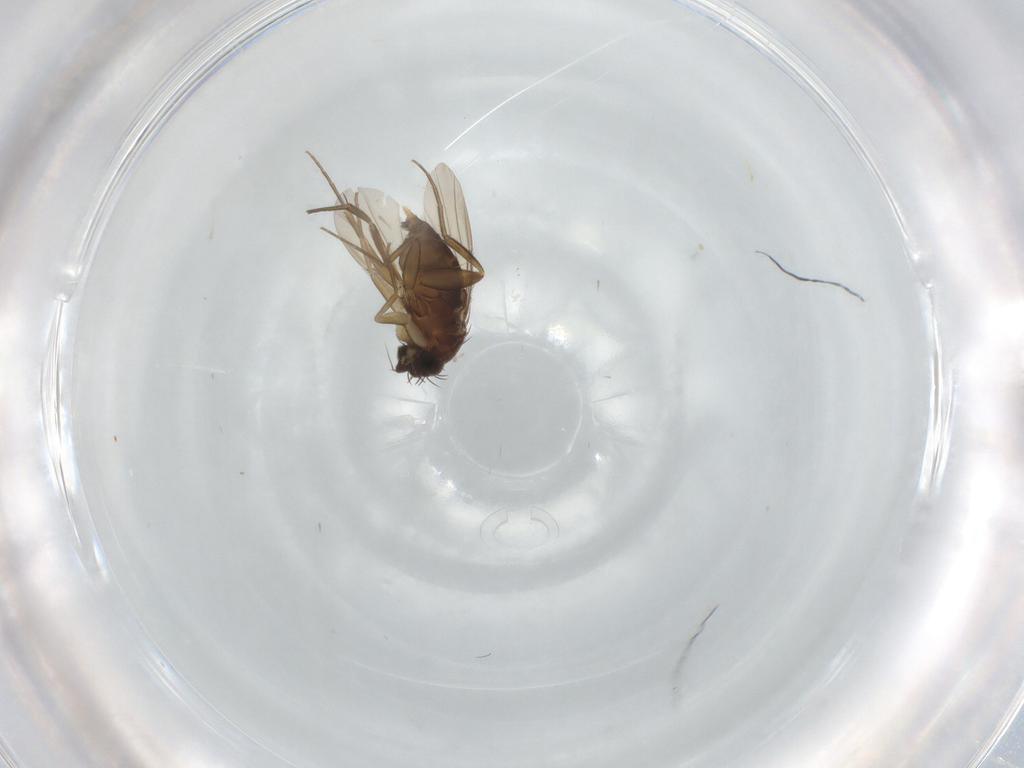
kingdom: Animalia
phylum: Arthropoda
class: Insecta
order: Diptera
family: Phoridae
